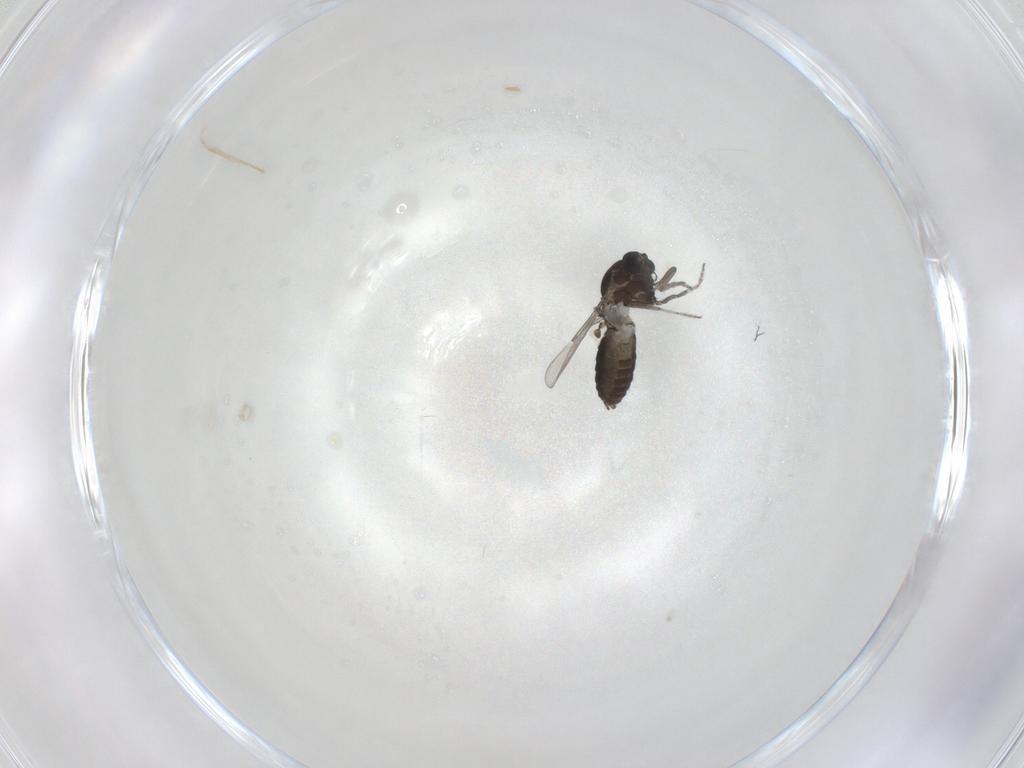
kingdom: Animalia
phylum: Arthropoda
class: Insecta
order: Diptera
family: Ceratopogonidae
